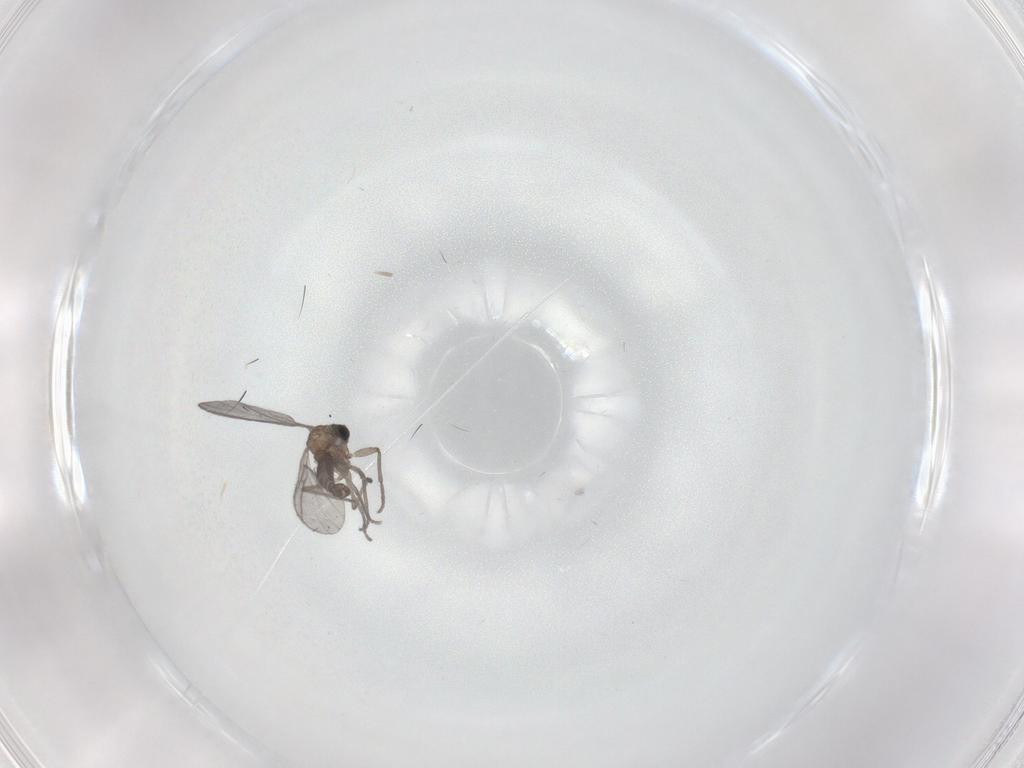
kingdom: Animalia
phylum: Arthropoda
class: Insecta
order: Diptera
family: Sciaridae
